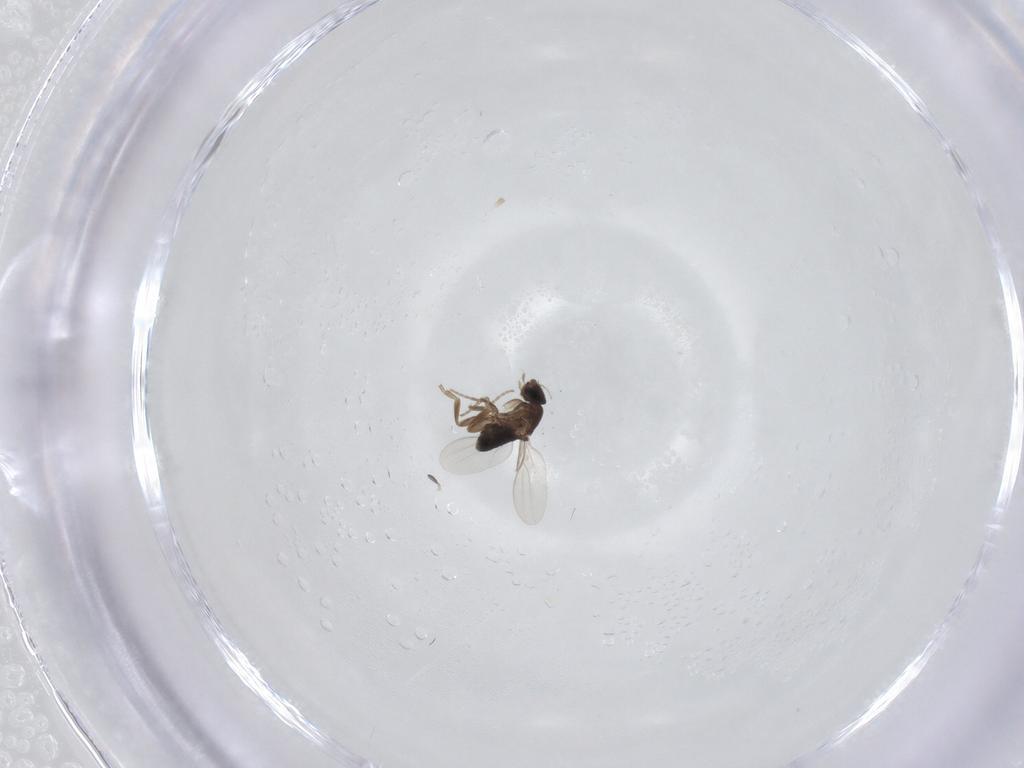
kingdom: Animalia
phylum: Arthropoda
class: Insecta
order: Diptera
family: Phoridae
